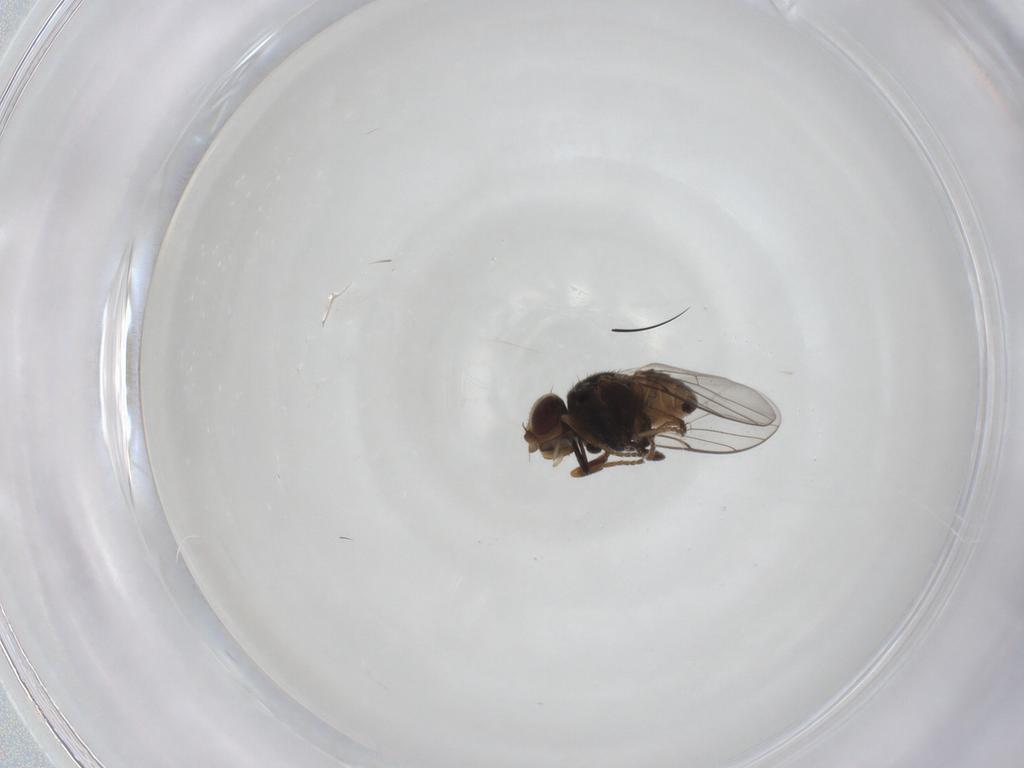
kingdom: Animalia
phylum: Arthropoda
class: Insecta
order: Diptera
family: Chloropidae
